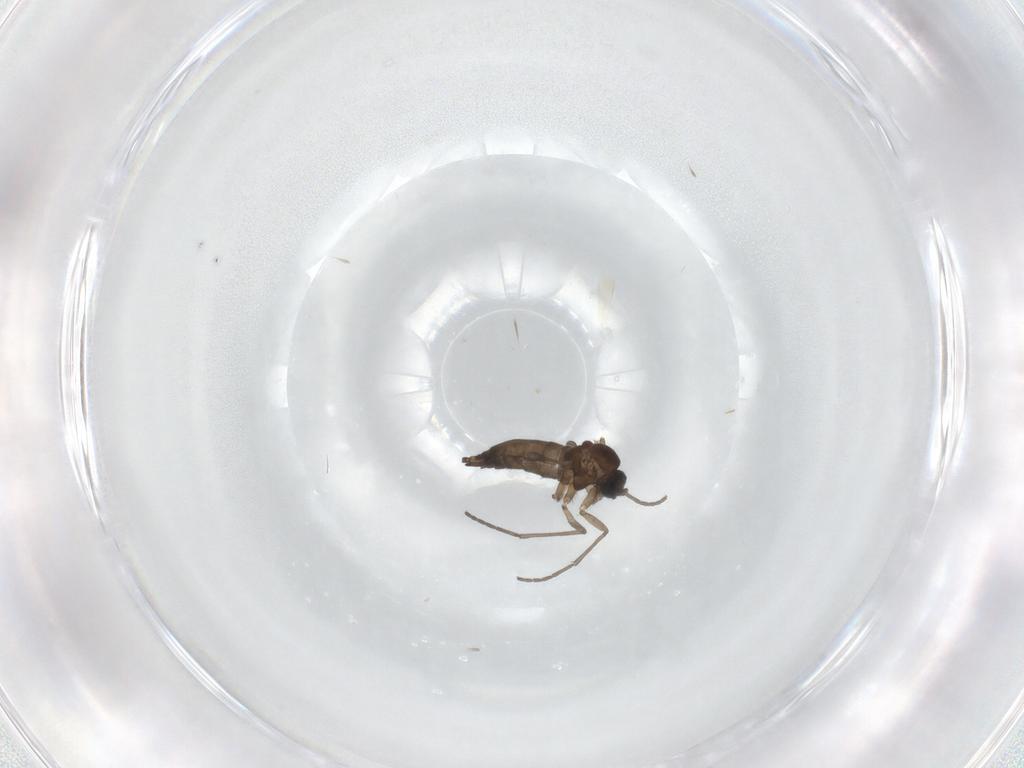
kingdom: Animalia
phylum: Arthropoda
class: Insecta
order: Diptera
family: Sciaridae
